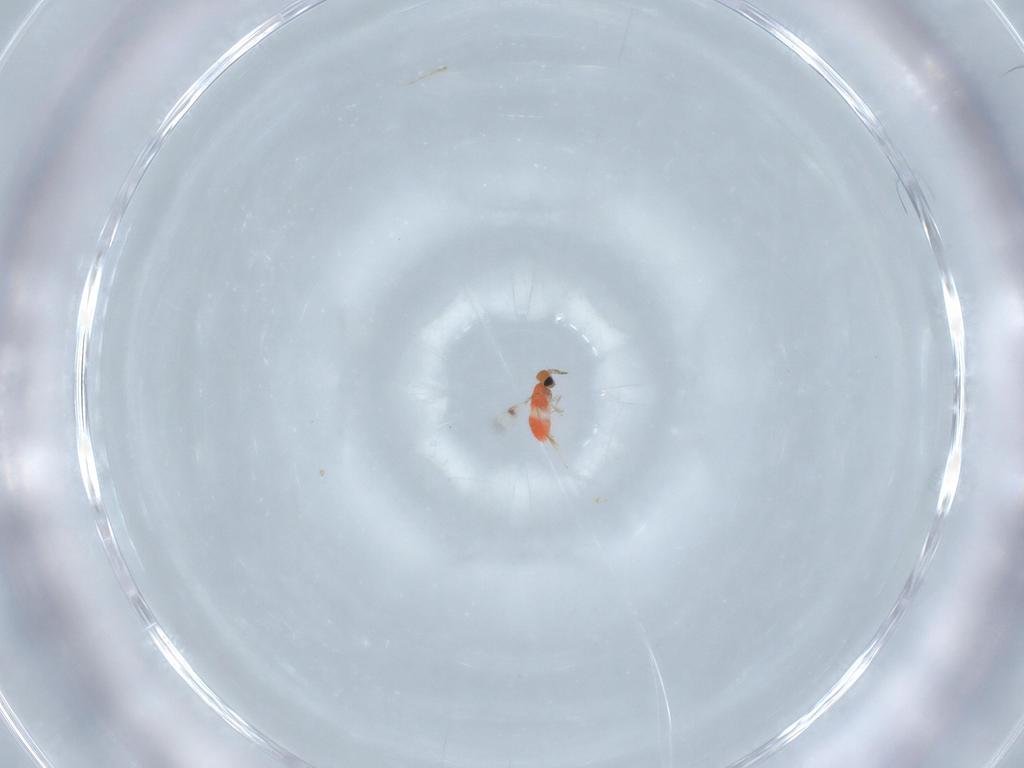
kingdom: Animalia
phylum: Arthropoda
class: Insecta
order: Hymenoptera
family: Trichogrammatidae
